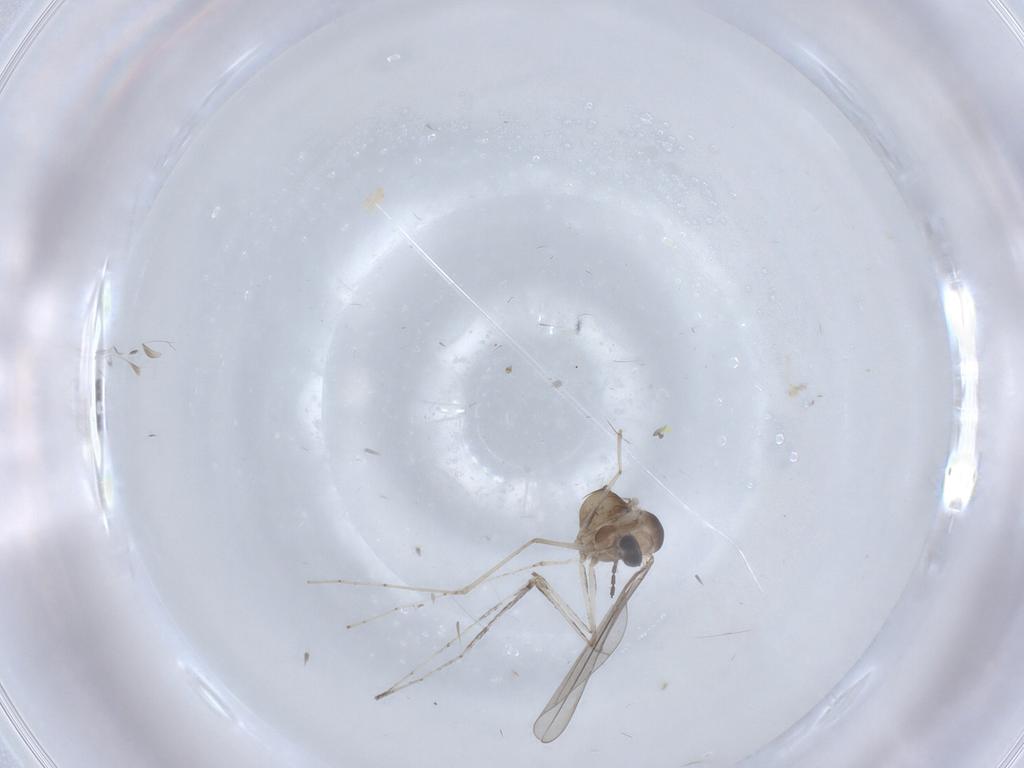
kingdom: Animalia
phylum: Arthropoda
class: Insecta
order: Diptera
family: Cecidomyiidae
